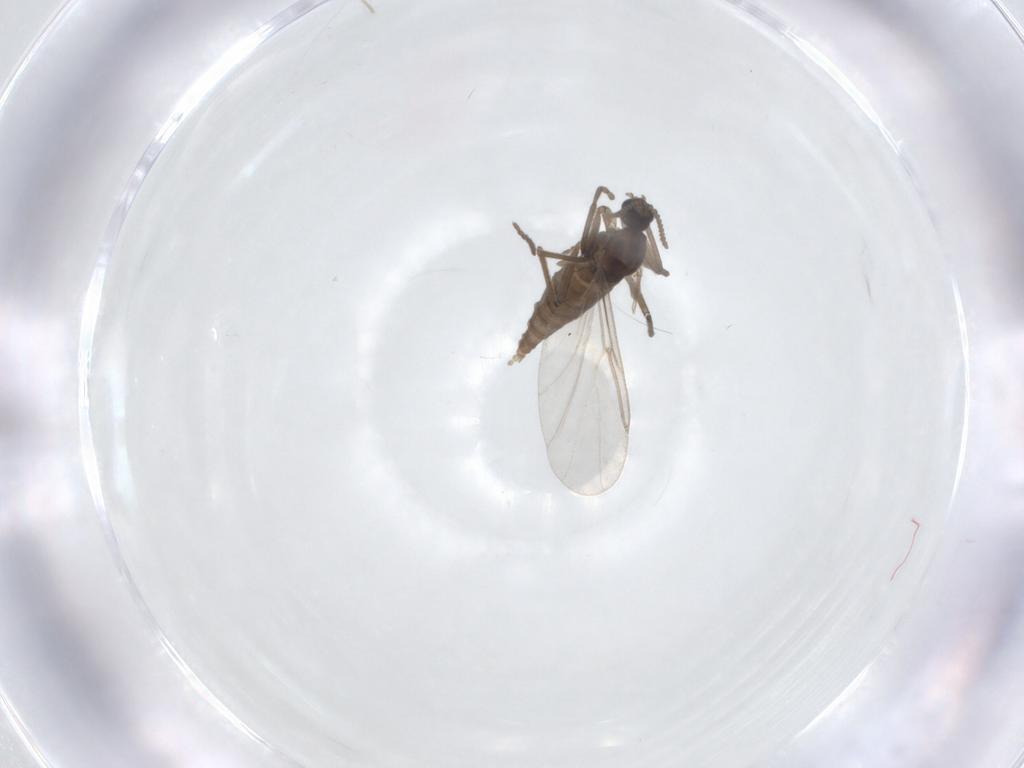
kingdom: Animalia
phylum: Arthropoda
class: Insecta
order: Diptera
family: Cecidomyiidae
